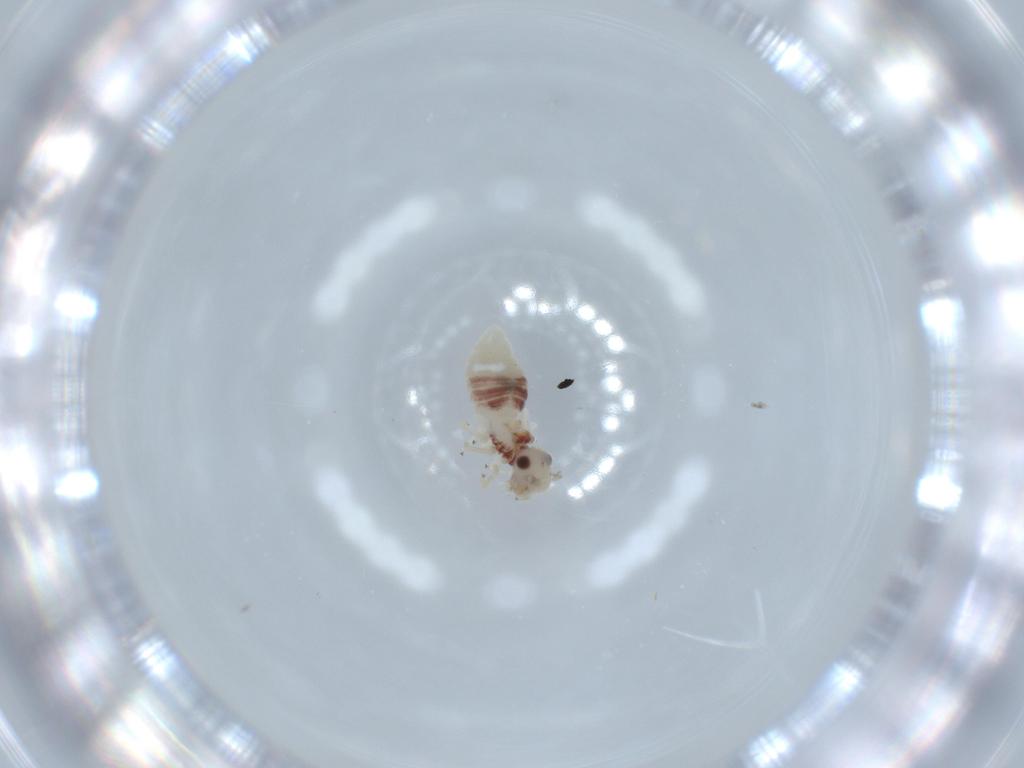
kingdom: Animalia
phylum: Arthropoda
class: Insecta
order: Psocodea
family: Caeciliusidae
